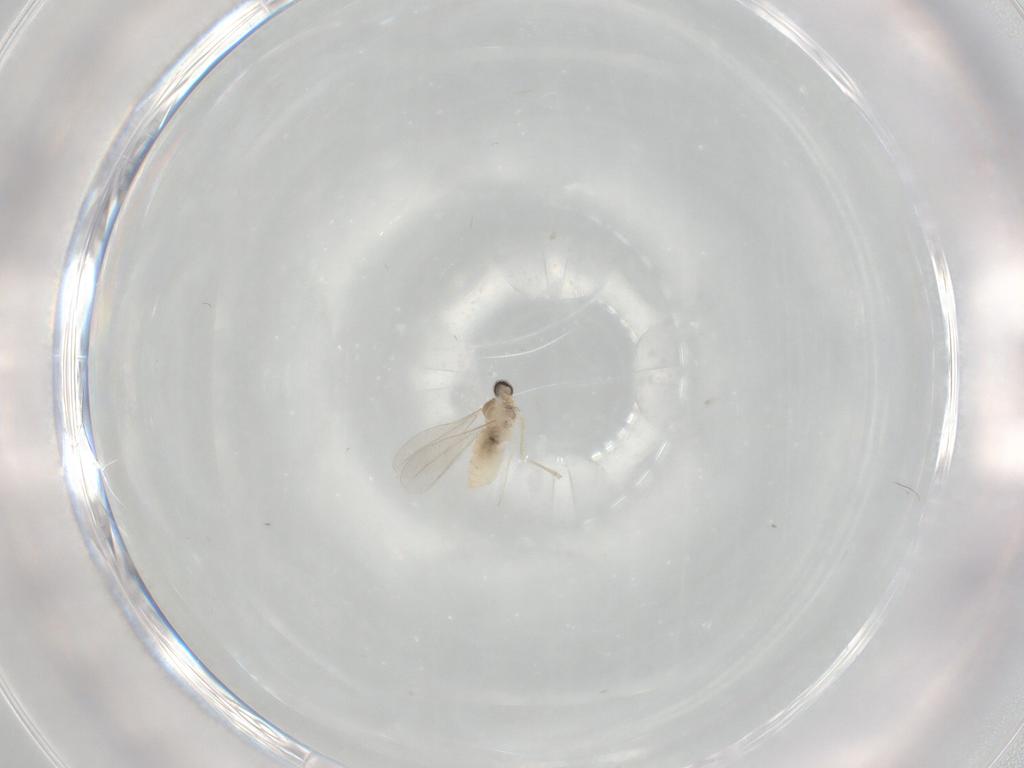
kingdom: Animalia
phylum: Arthropoda
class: Insecta
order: Diptera
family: Cecidomyiidae
